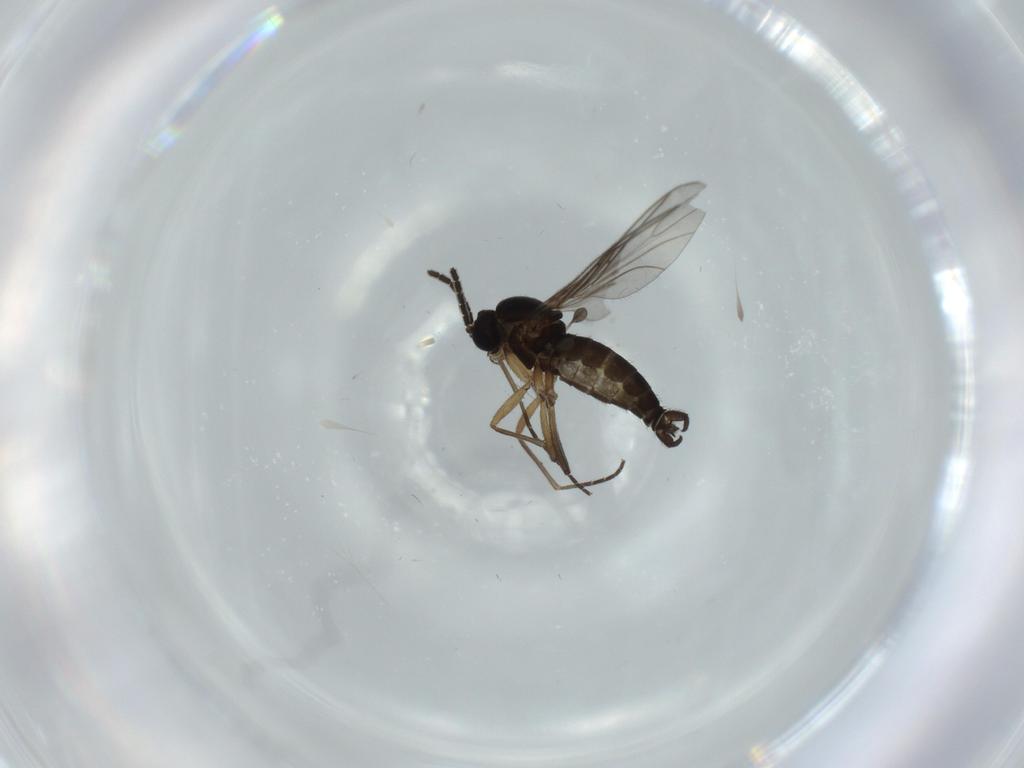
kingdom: Animalia
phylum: Arthropoda
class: Insecta
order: Diptera
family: Sciaridae
